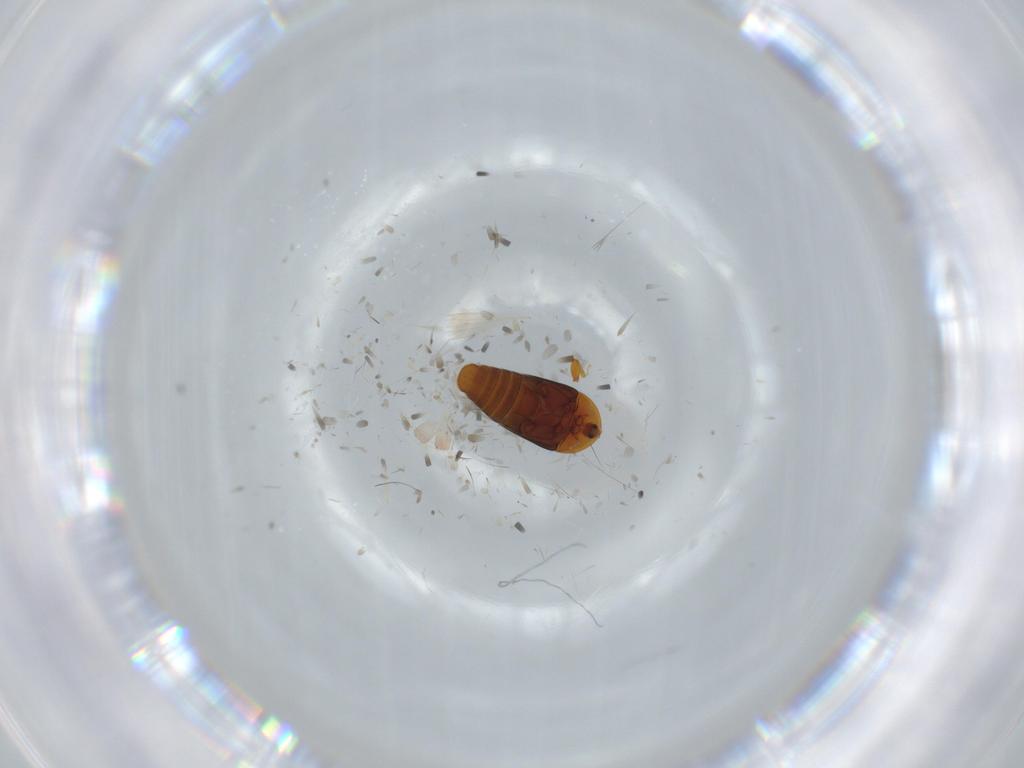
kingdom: Animalia
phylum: Arthropoda
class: Insecta
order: Coleoptera
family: Corylophidae
